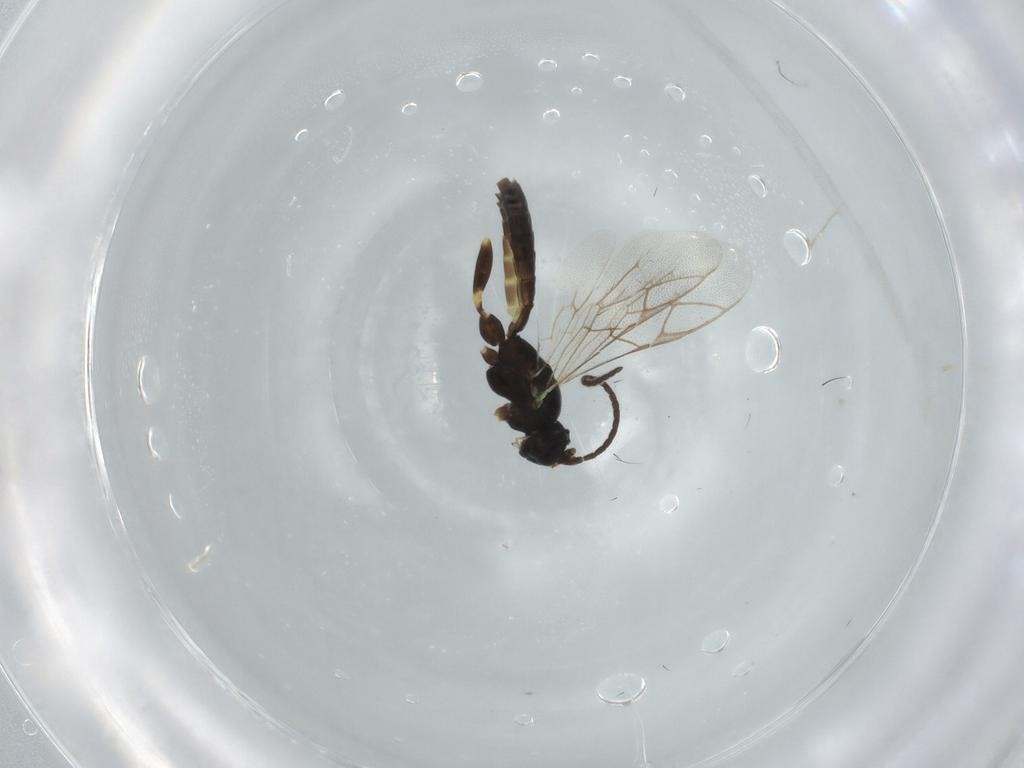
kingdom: Animalia
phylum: Arthropoda
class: Insecta
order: Hymenoptera
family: Ichneumonidae
